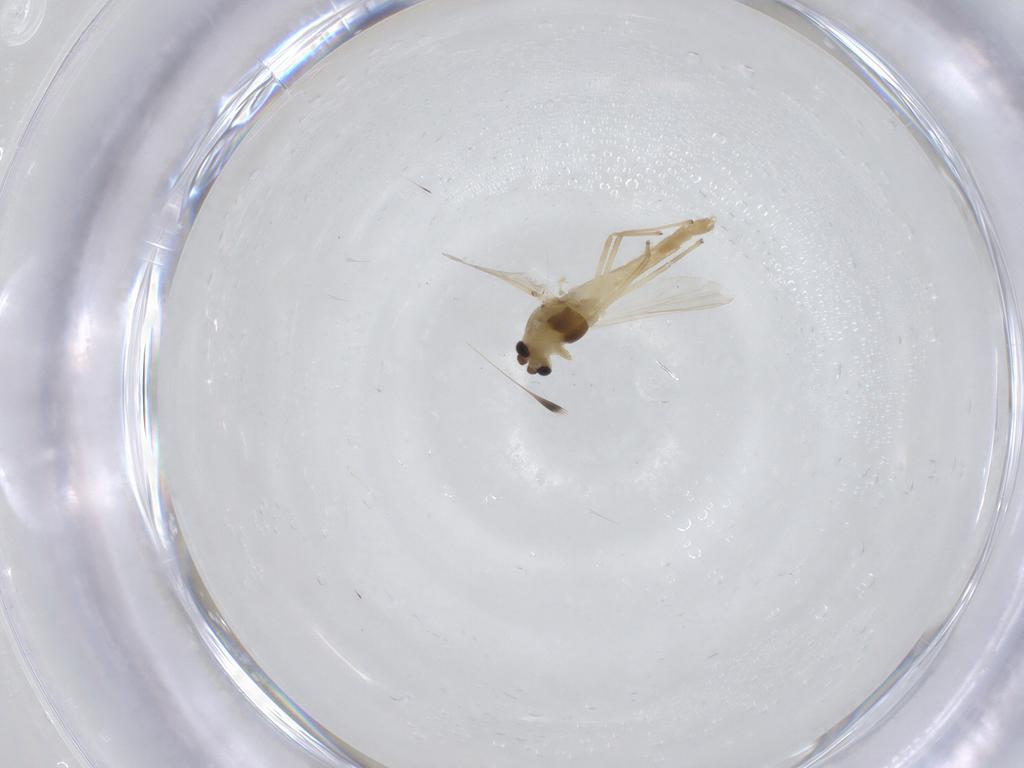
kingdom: Animalia
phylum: Arthropoda
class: Insecta
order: Diptera
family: Chironomidae
